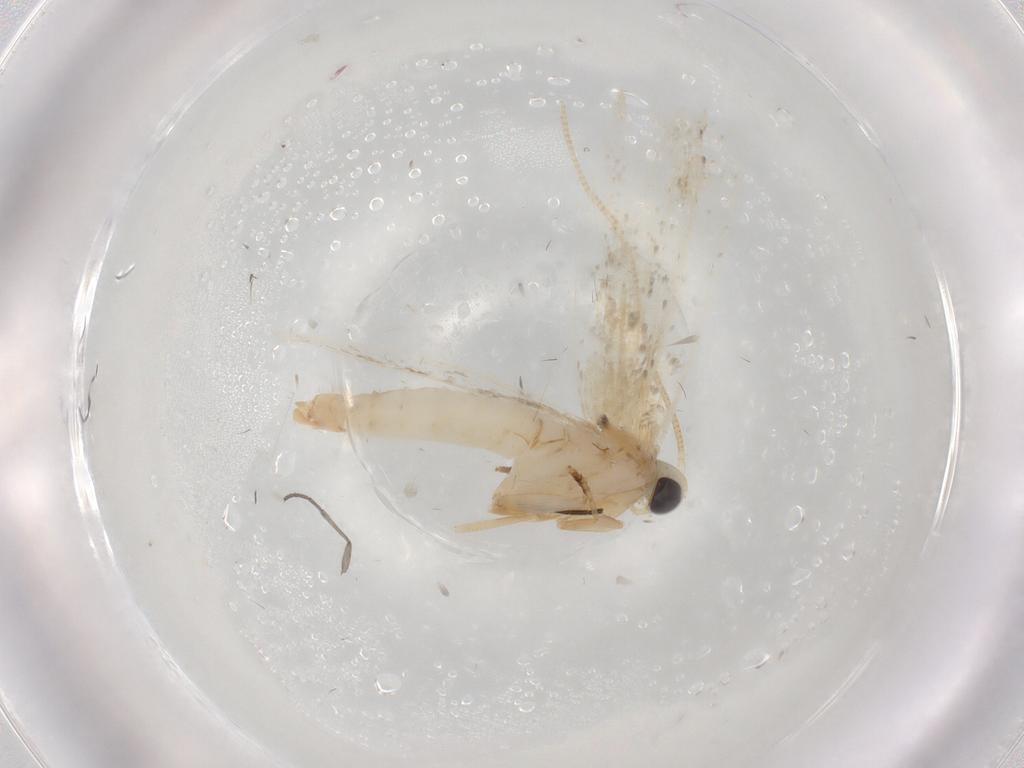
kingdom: Animalia
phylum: Arthropoda
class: Insecta
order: Lepidoptera
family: Tineidae
